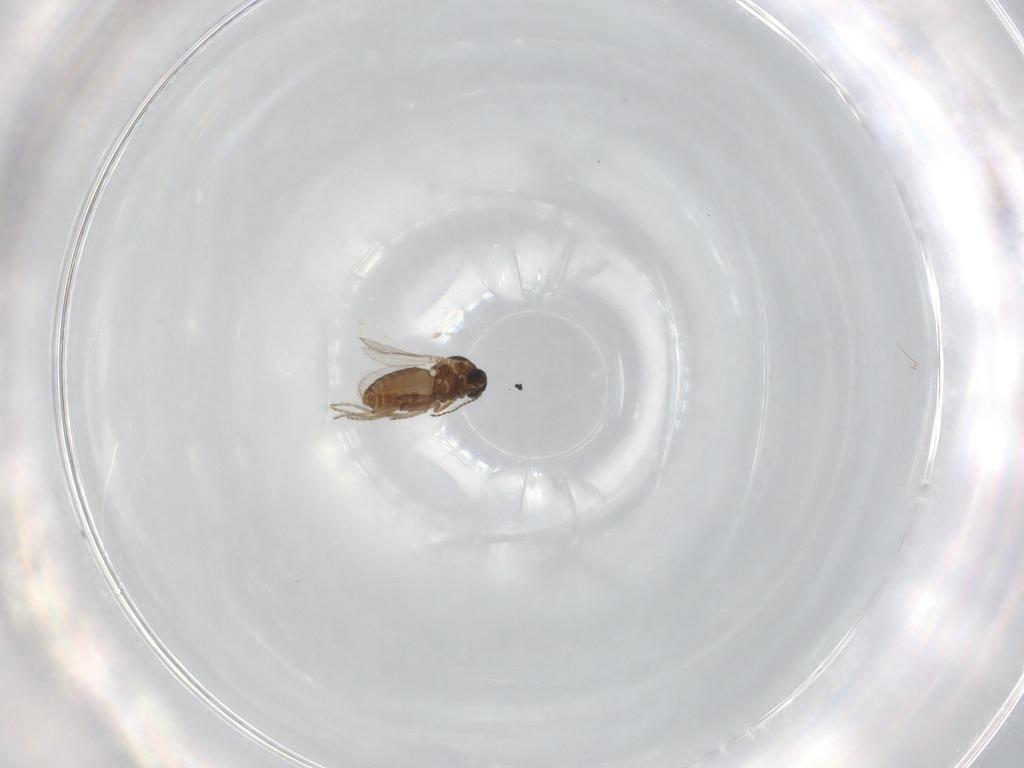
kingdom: Animalia
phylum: Arthropoda
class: Insecta
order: Diptera
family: Ceratopogonidae
